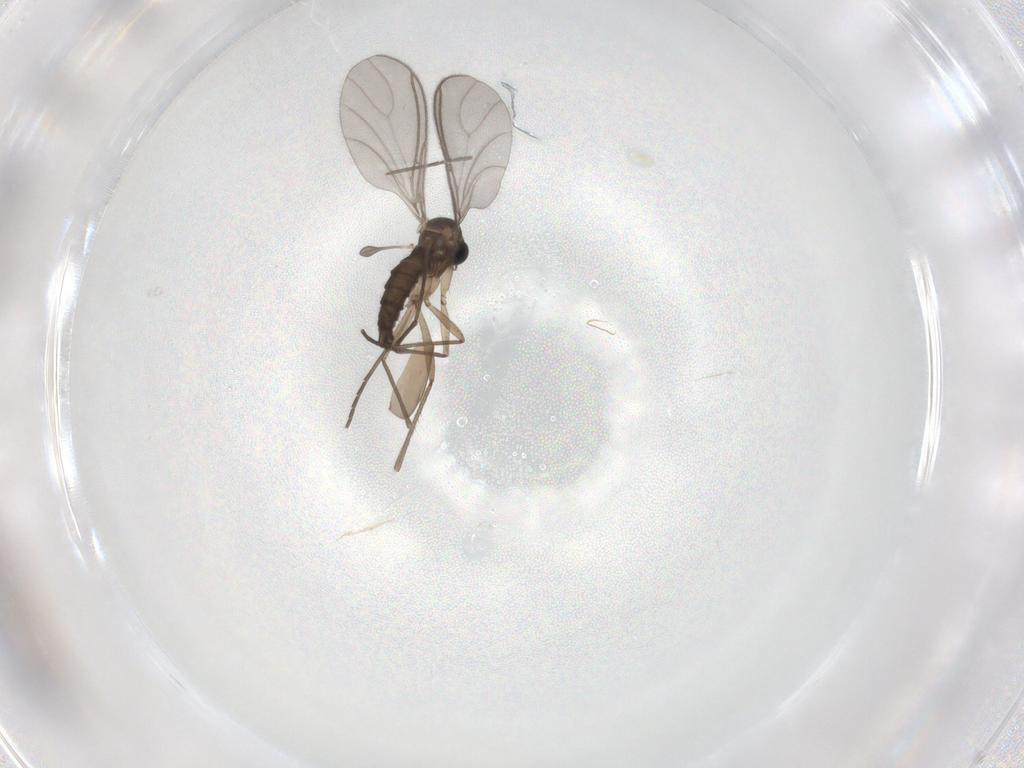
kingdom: Animalia
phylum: Arthropoda
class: Insecta
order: Diptera
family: Sciaridae
